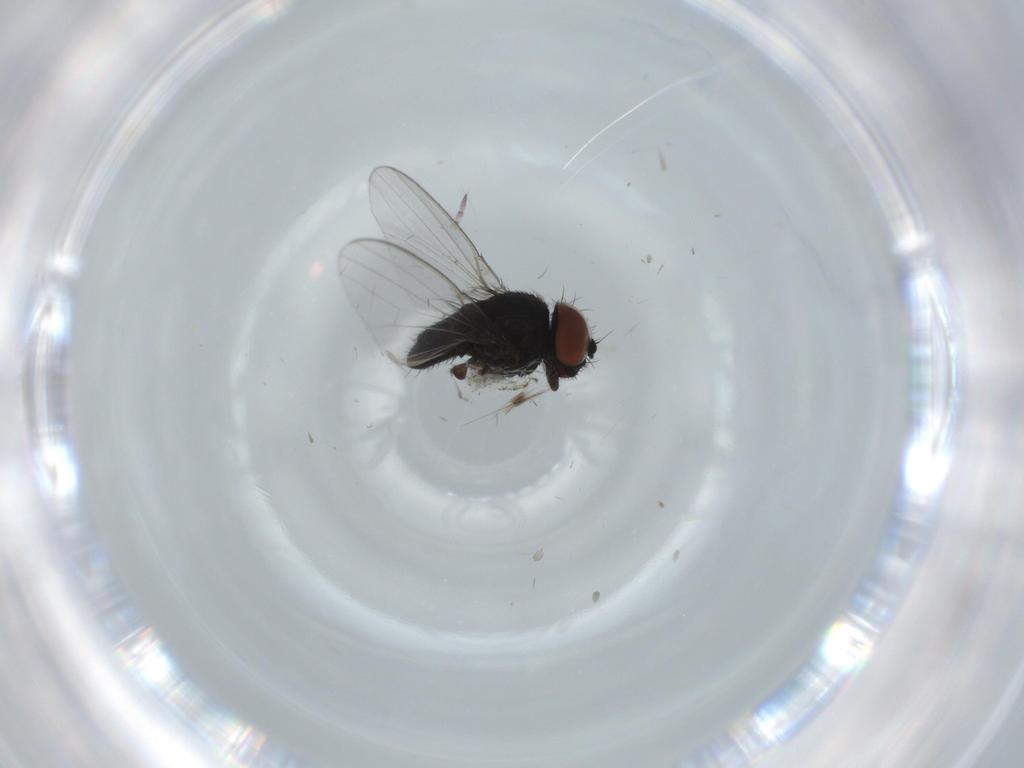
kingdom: Animalia
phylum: Arthropoda
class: Insecta
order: Diptera
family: Milichiidae
